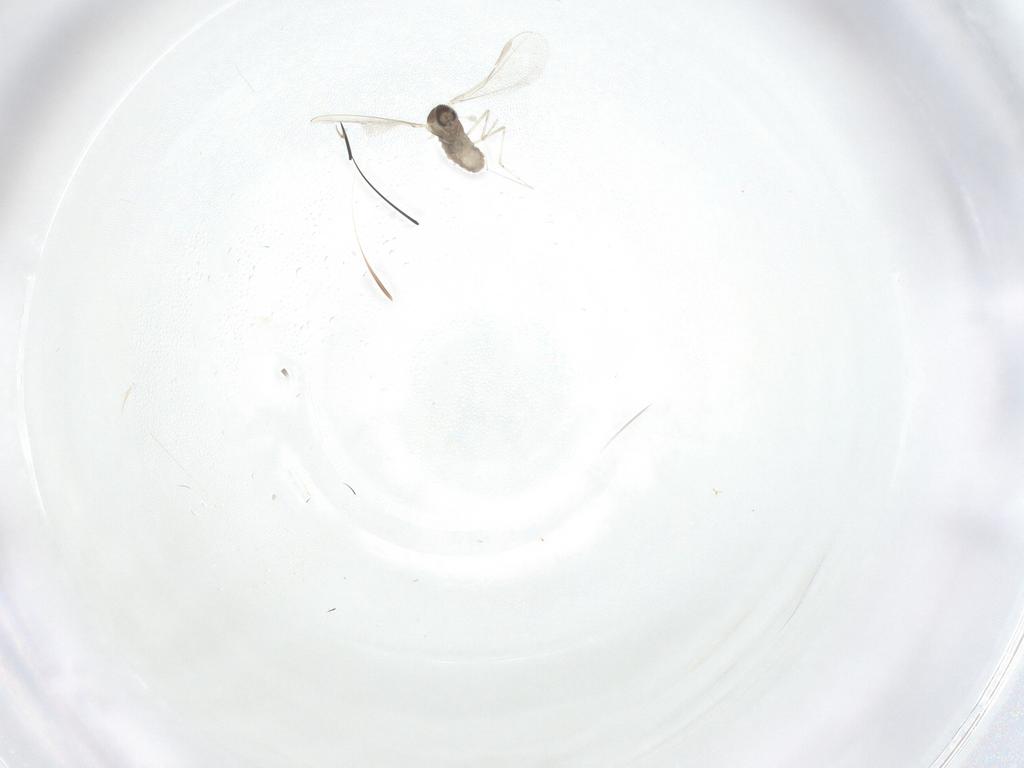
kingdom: Animalia
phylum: Arthropoda
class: Insecta
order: Diptera
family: Cecidomyiidae
